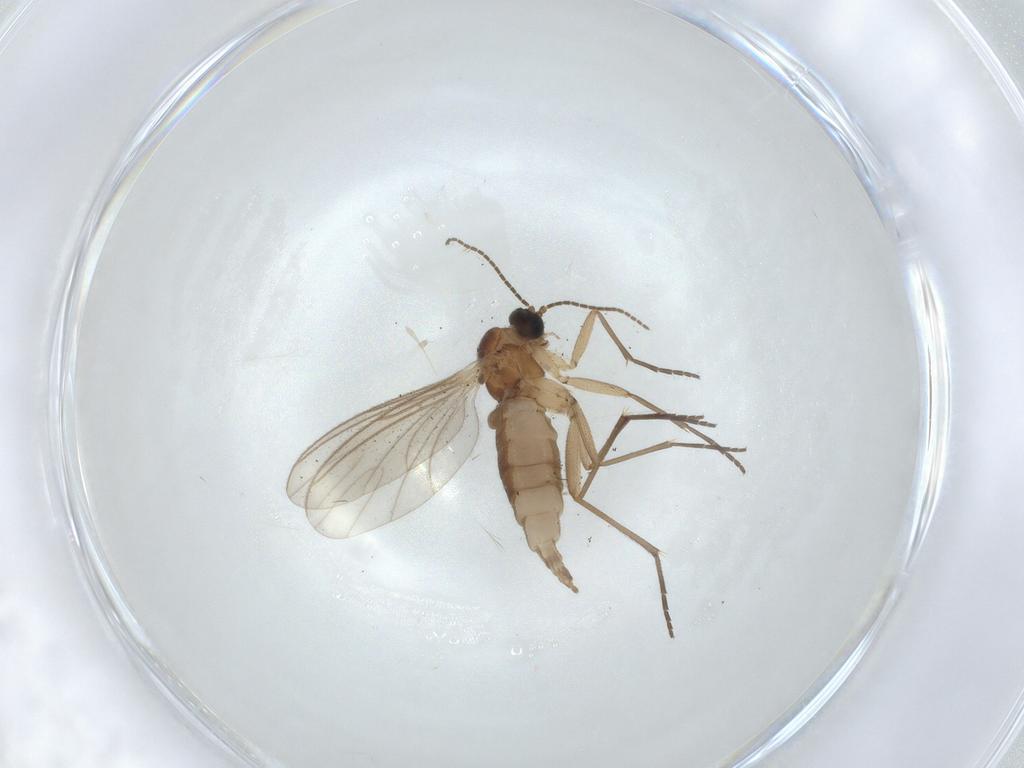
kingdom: Animalia
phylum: Arthropoda
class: Insecta
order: Diptera
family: Sciaridae
